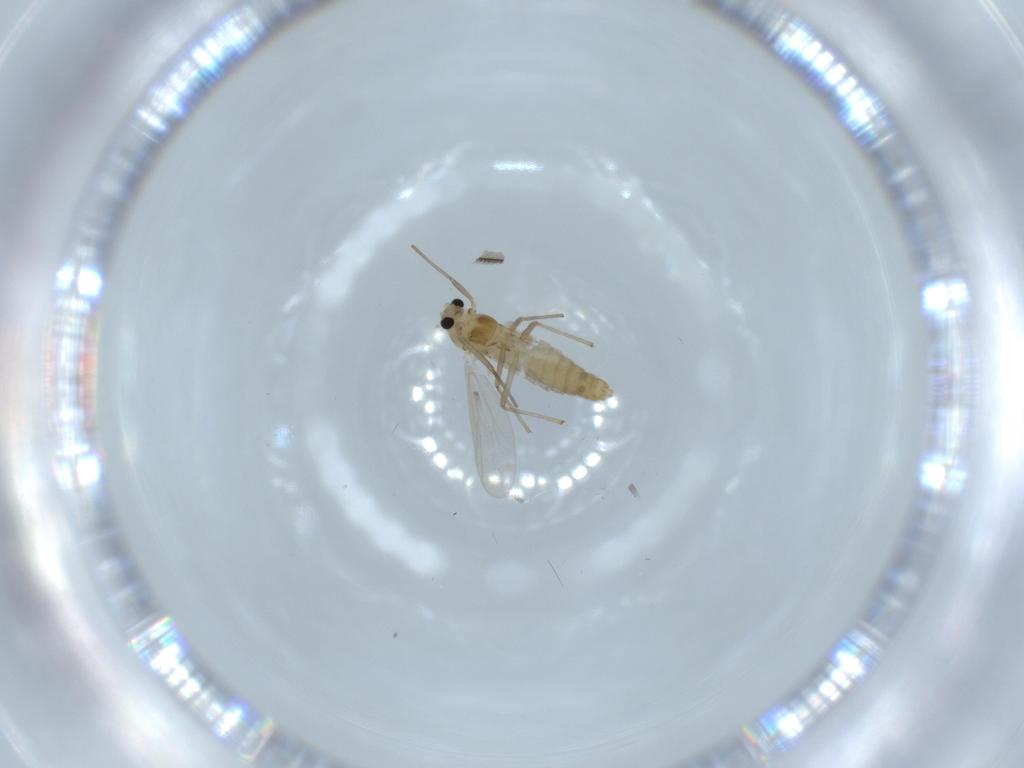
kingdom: Animalia
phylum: Arthropoda
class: Insecta
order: Diptera
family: Chironomidae
